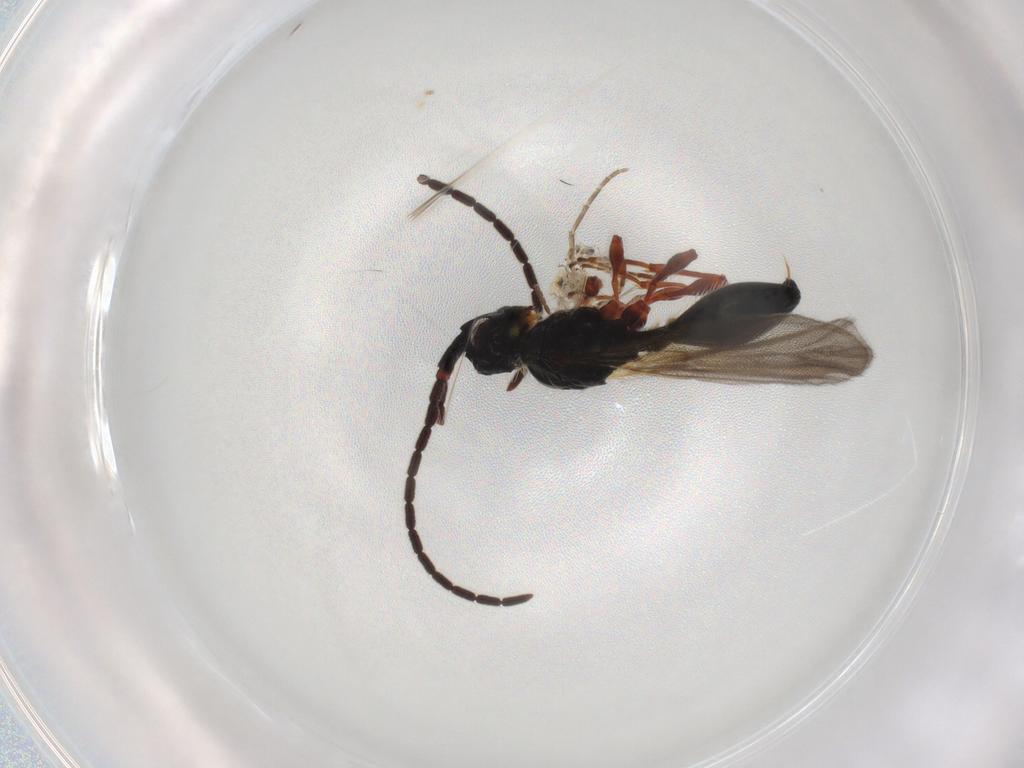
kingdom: Animalia
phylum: Arthropoda
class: Insecta
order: Hymenoptera
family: Diapriidae
